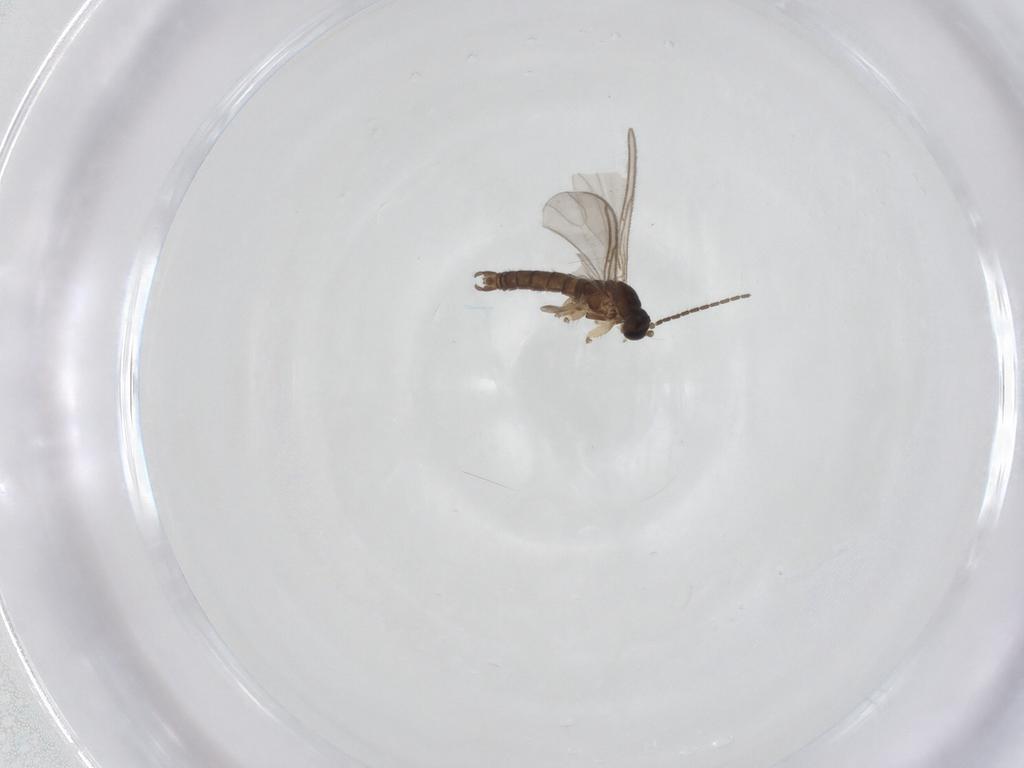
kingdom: Animalia
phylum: Arthropoda
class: Insecta
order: Diptera
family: Sciaridae
